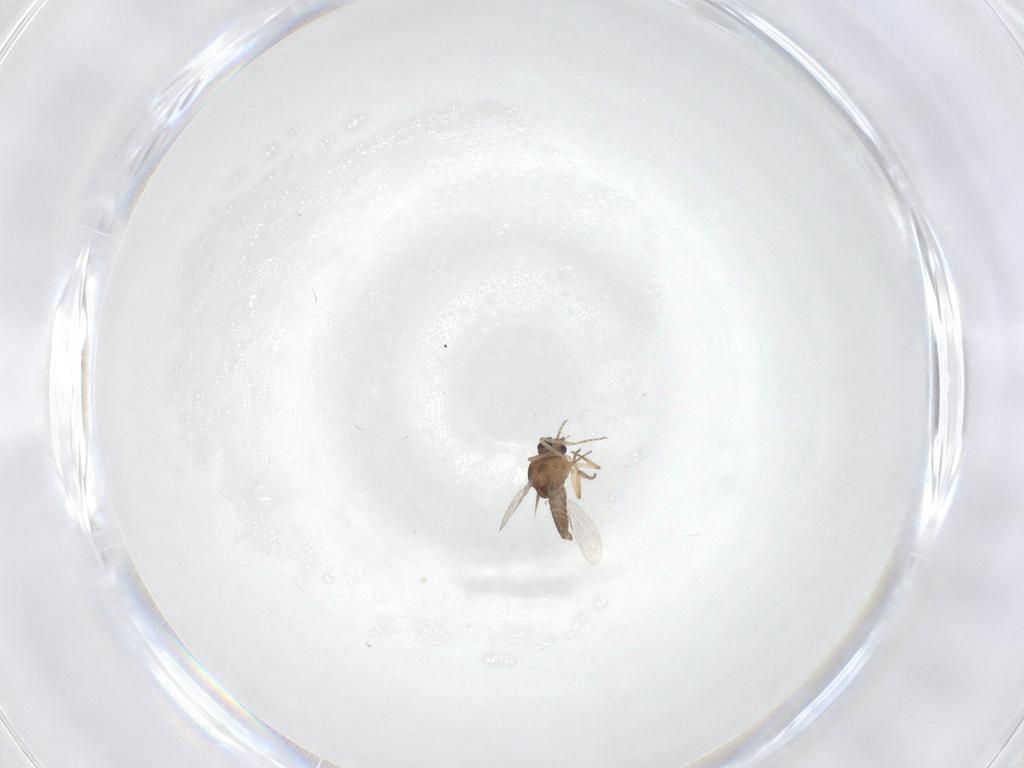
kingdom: Animalia
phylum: Arthropoda
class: Insecta
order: Diptera
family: Ceratopogonidae
